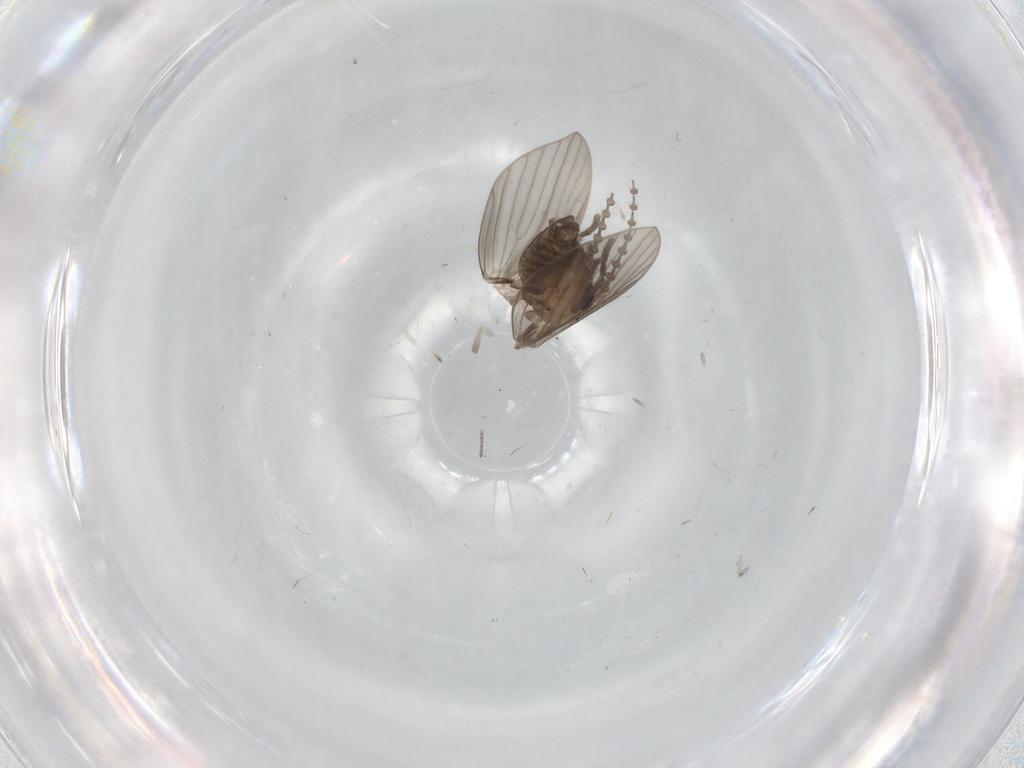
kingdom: Animalia
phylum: Arthropoda
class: Insecta
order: Diptera
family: Psychodidae
